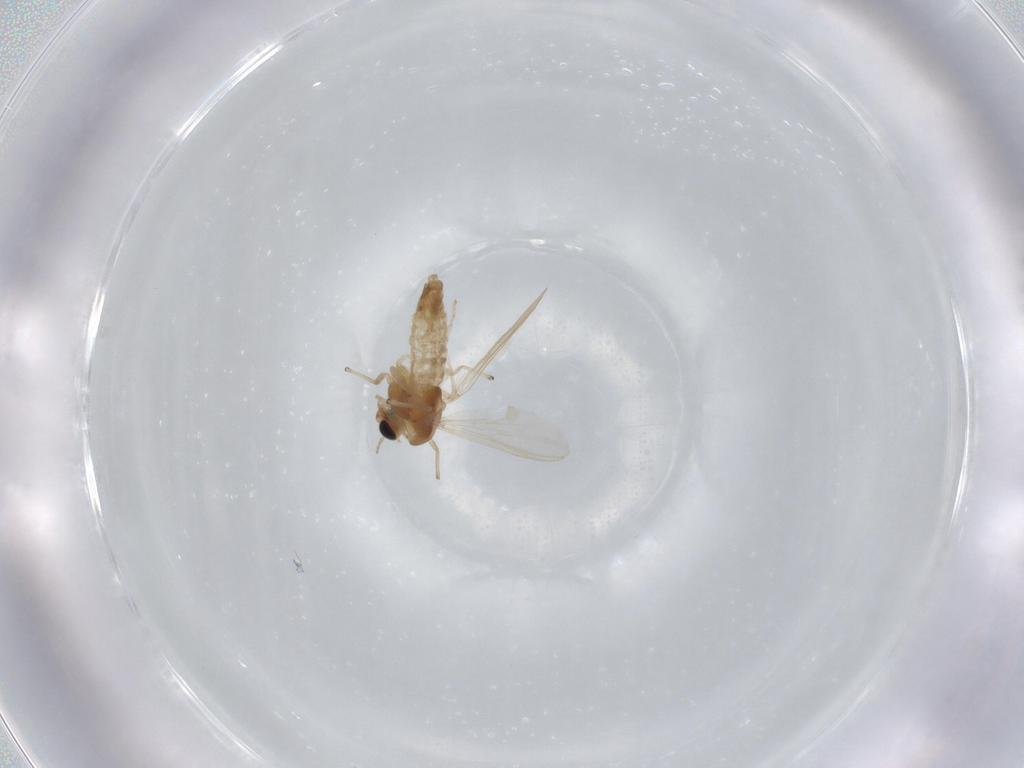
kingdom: Animalia
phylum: Arthropoda
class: Insecta
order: Diptera
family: Chironomidae
